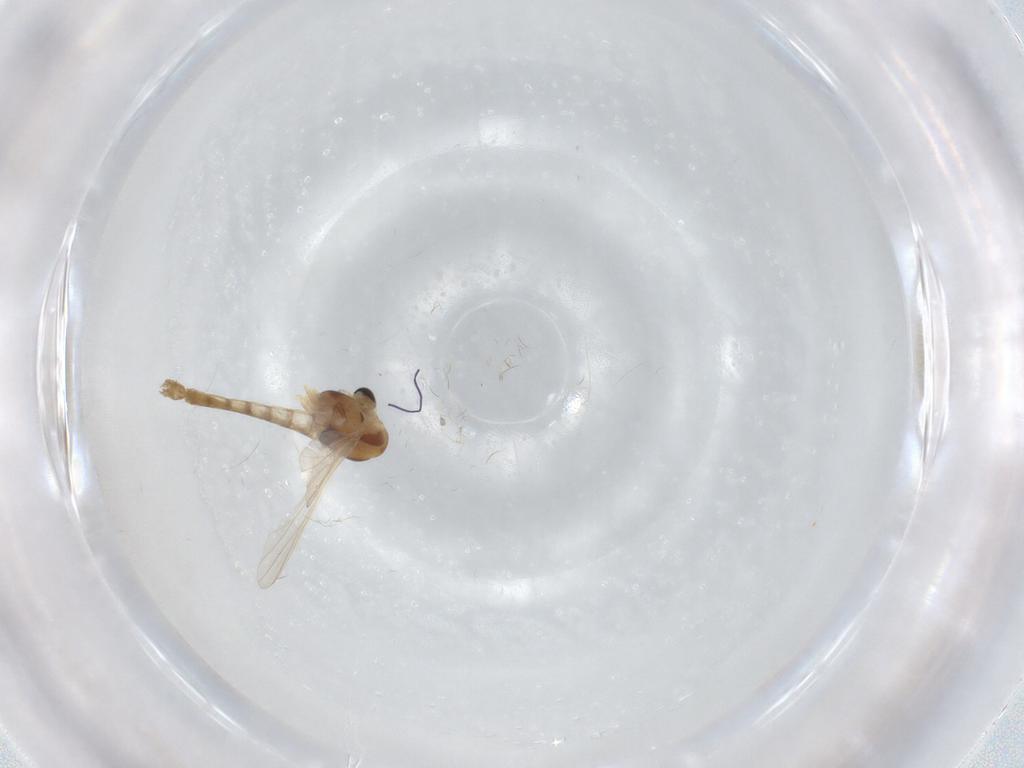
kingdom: Animalia
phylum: Arthropoda
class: Insecta
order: Diptera
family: Chironomidae
